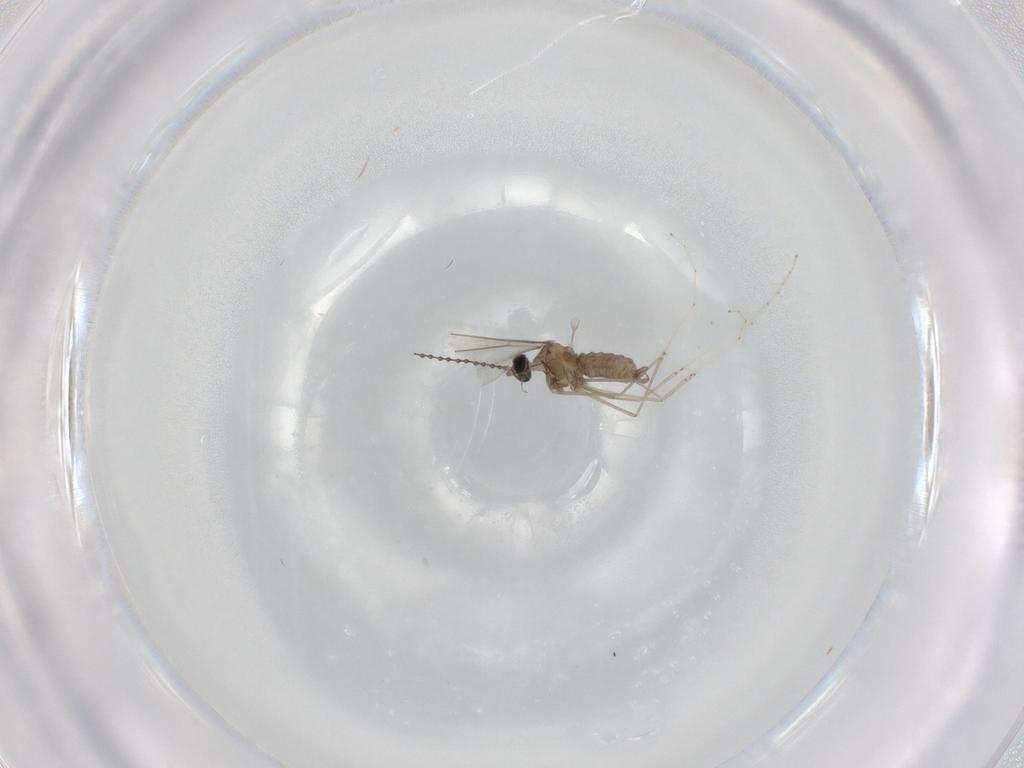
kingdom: Animalia
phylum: Arthropoda
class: Insecta
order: Diptera
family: Cecidomyiidae
